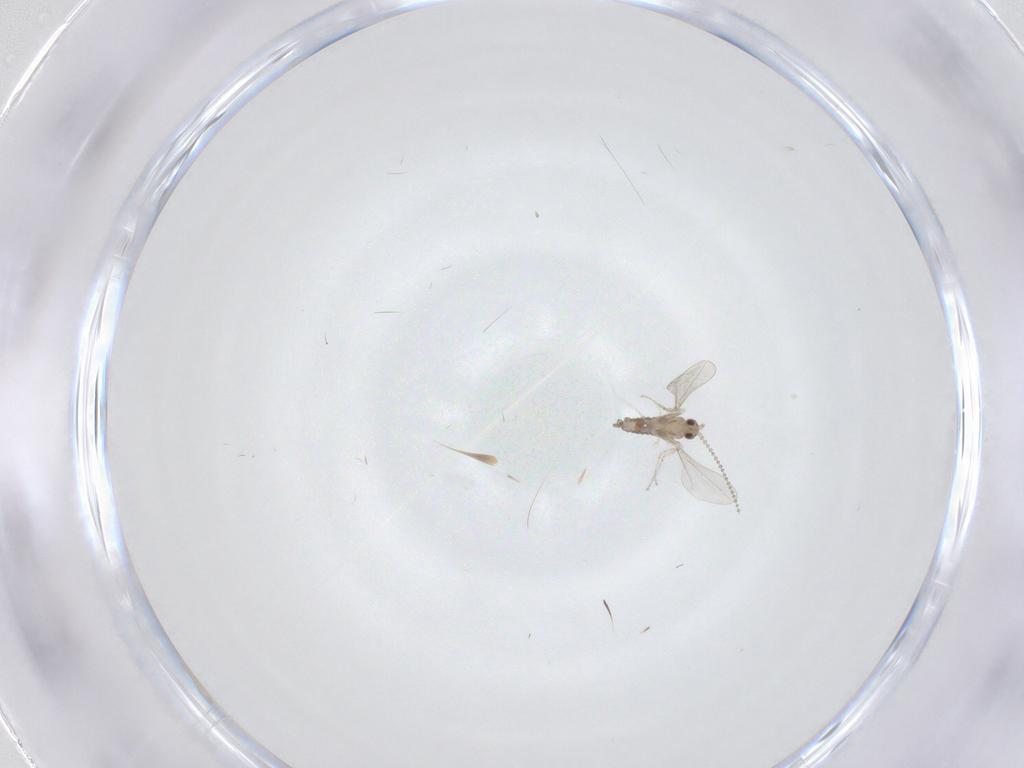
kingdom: Animalia
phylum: Arthropoda
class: Insecta
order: Diptera
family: Cecidomyiidae
